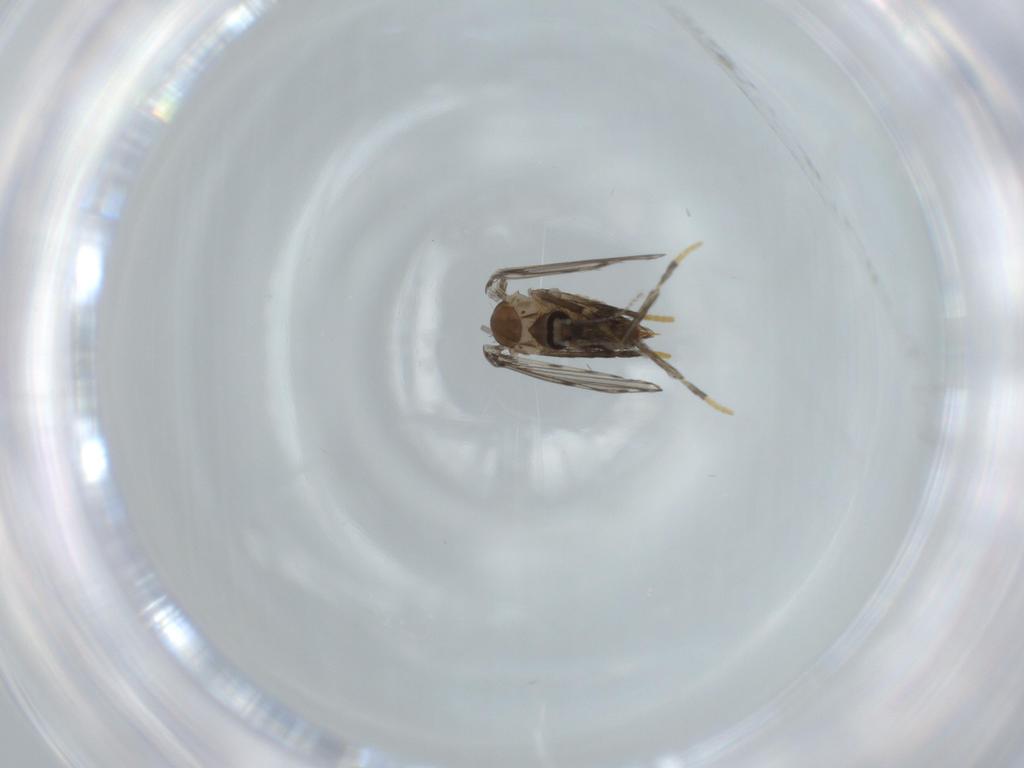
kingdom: Animalia
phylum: Arthropoda
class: Insecta
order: Diptera
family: Psychodidae
